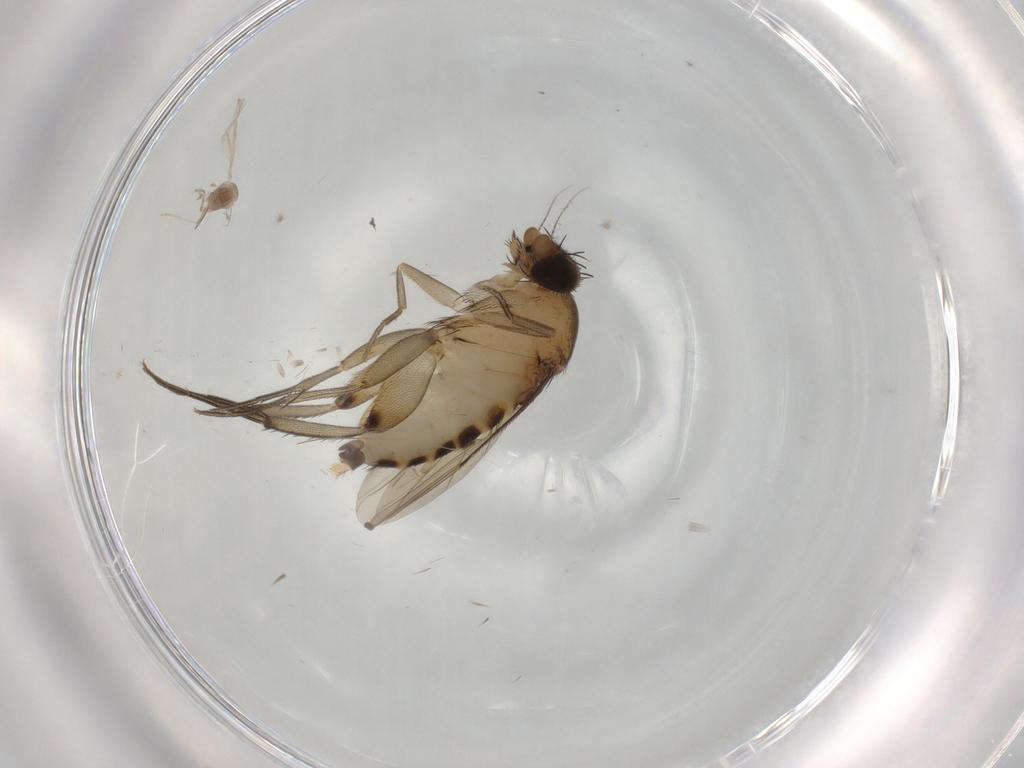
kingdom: Animalia
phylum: Arthropoda
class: Insecta
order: Diptera
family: Phoridae
